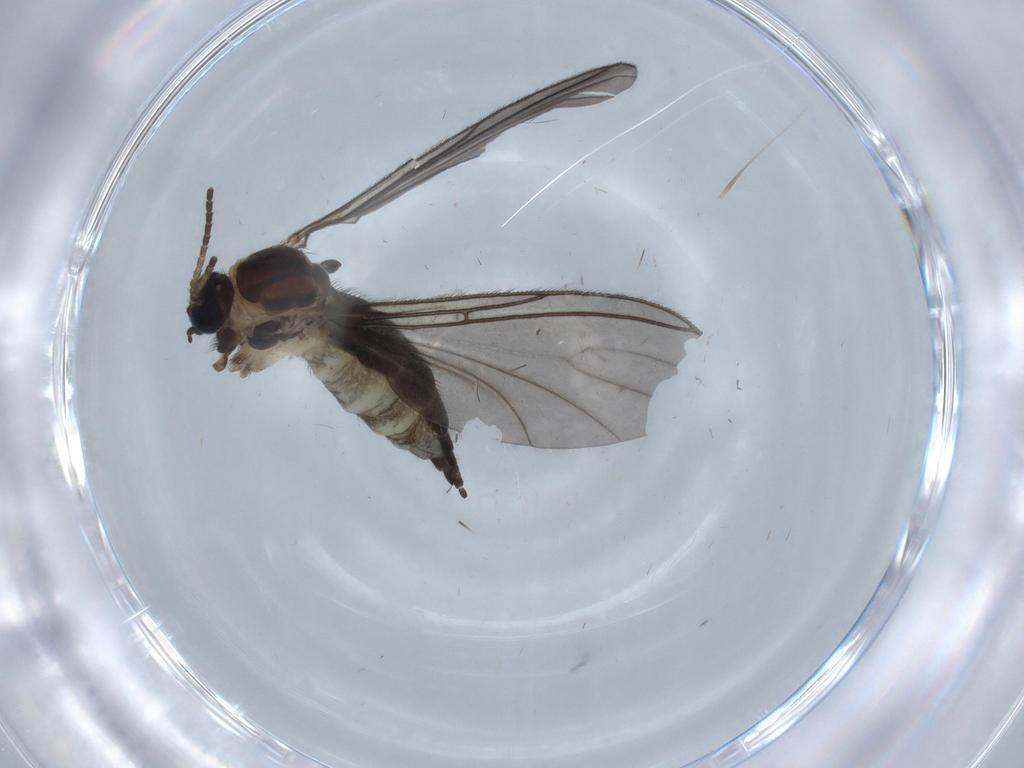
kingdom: Animalia
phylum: Arthropoda
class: Insecta
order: Diptera
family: Sciaridae
